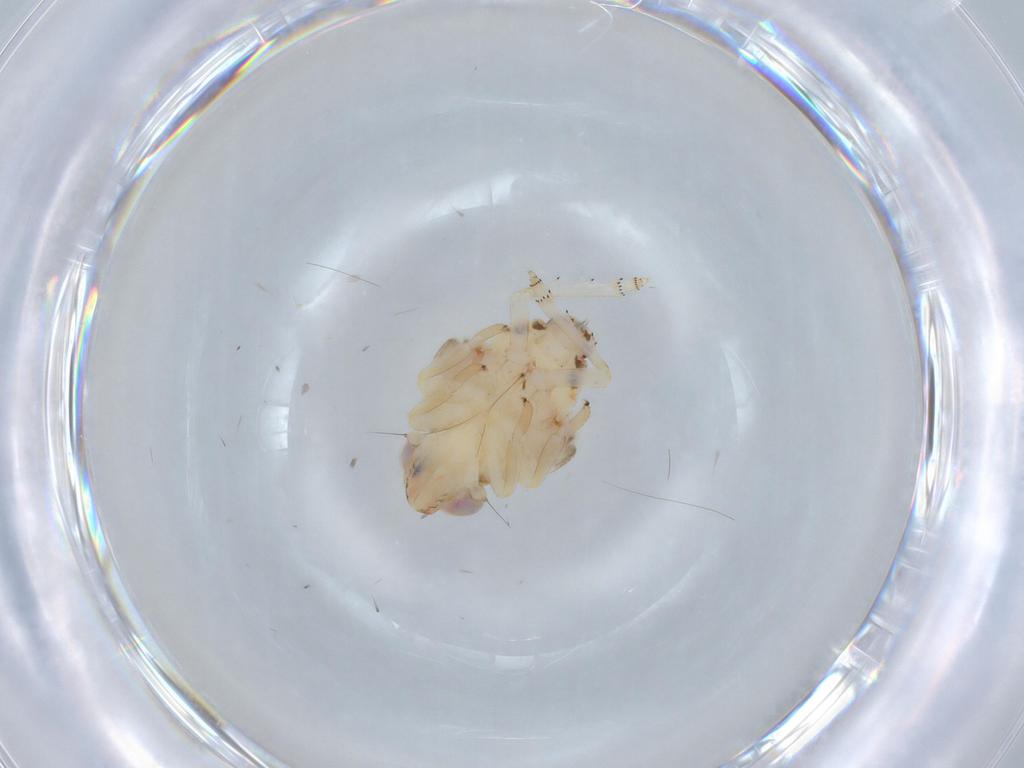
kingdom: Animalia
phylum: Arthropoda
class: Insecta
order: Hemiptera
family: Nogodinidae
